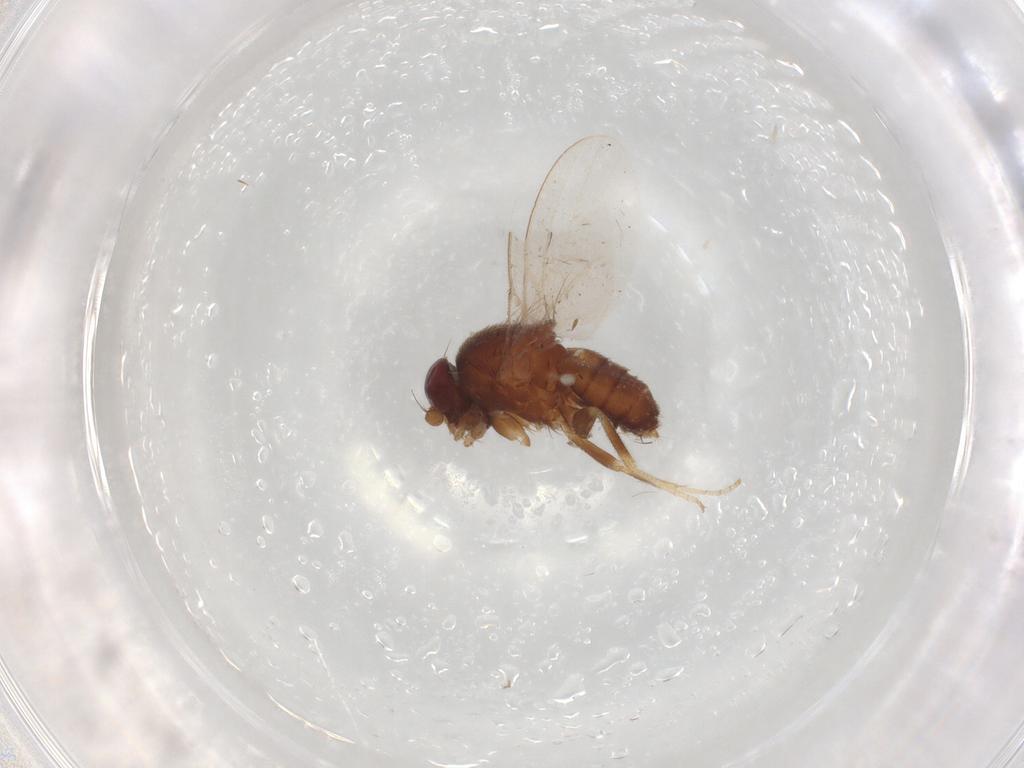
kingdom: Animalia
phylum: Arthropoda
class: Insecta
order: Diptera
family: Milichiidae
